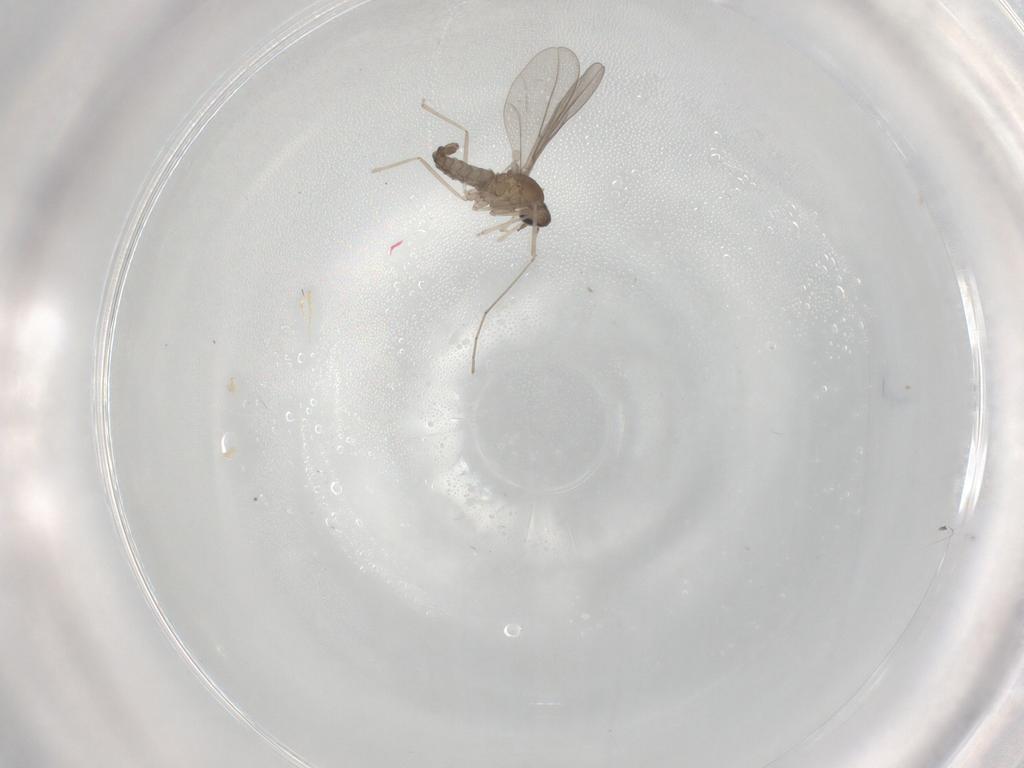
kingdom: Animalia
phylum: Arthropoda
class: Insecta
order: Diptera
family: Cecidomyiidae
